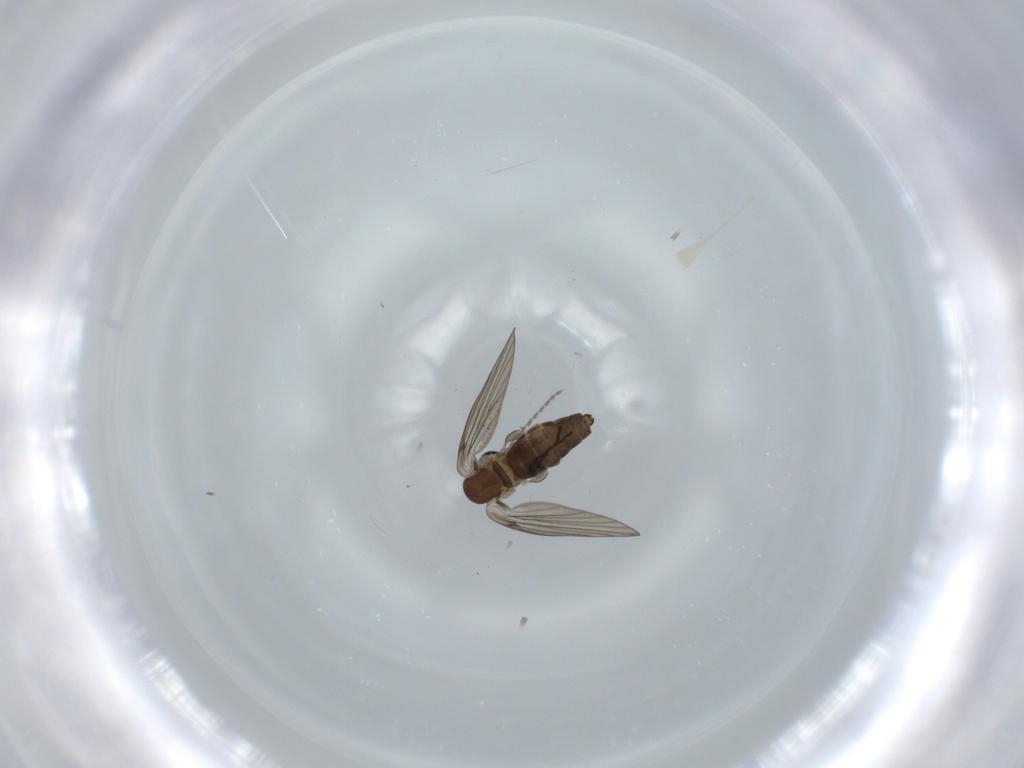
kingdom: Animalia
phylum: Arthropoda
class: Insecta
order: Diptera
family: Psychodidae
